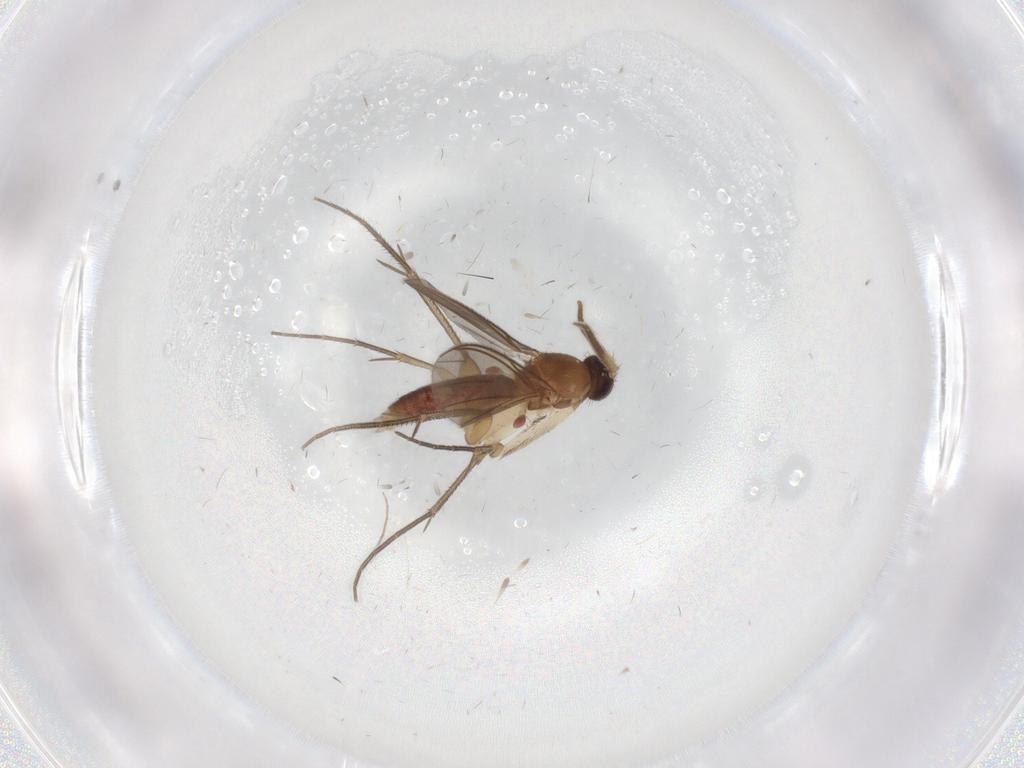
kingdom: Animalia
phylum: Arthropoda
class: Insecta
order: Diptera
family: Mycetophilidae
